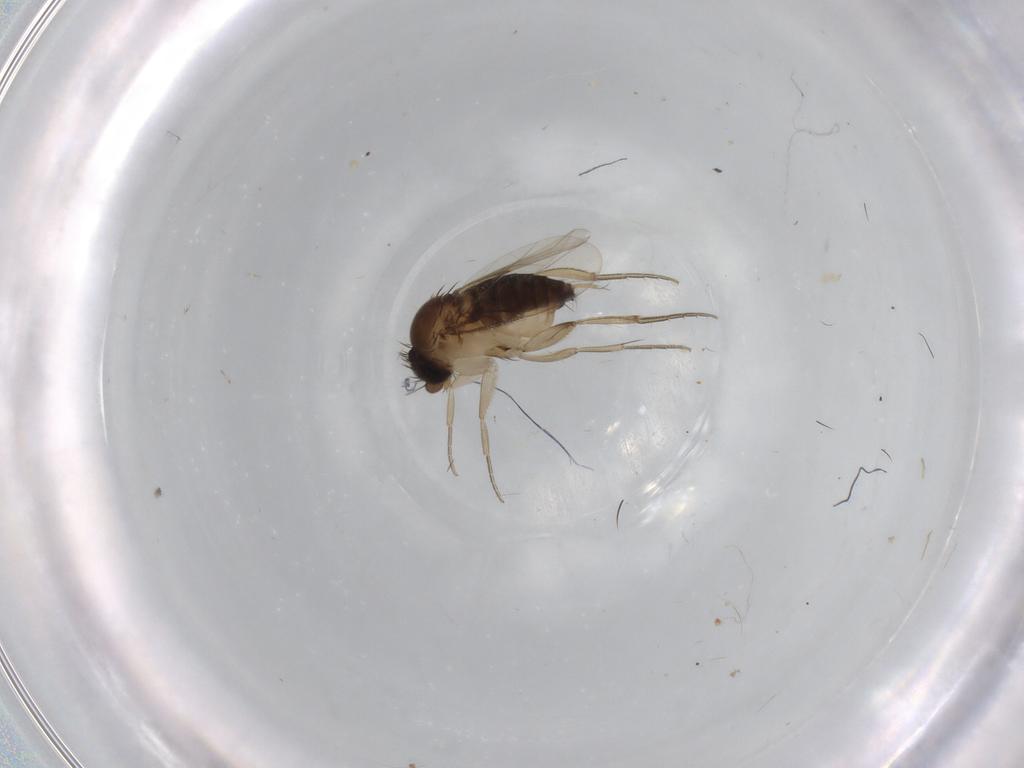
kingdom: Animalia
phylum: Arthropoda
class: Insecta
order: Diptera
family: Phoridae
